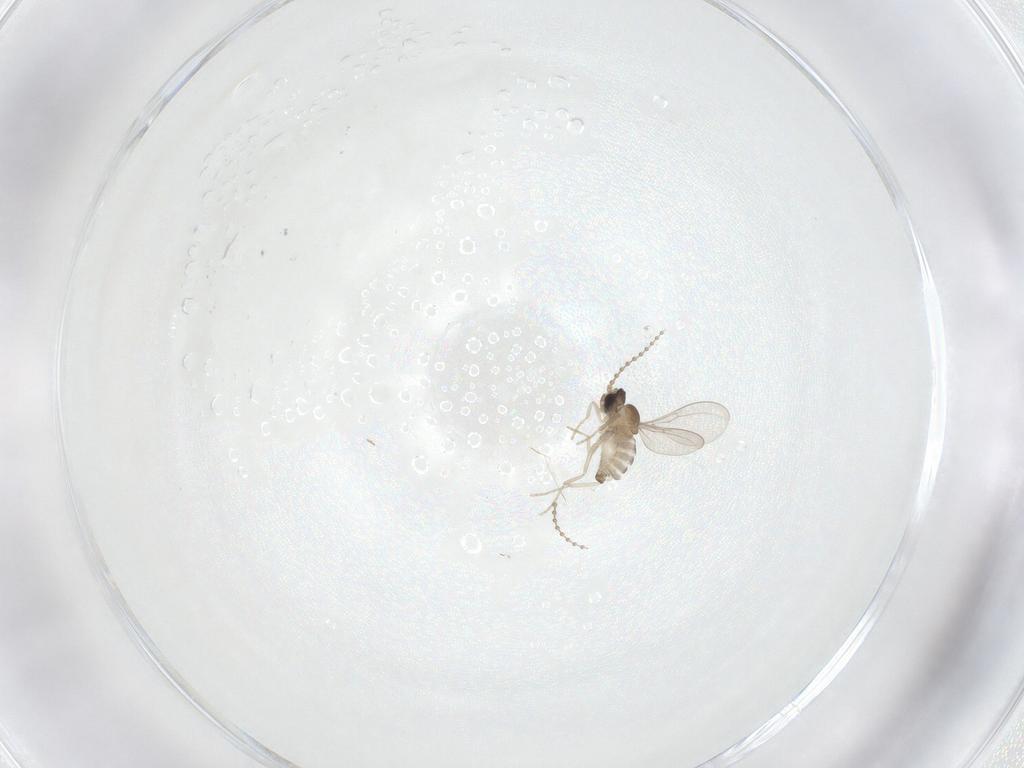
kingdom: Animalia
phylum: Arthropoda
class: Insecta
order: Diptera
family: Cecidomyiidae
